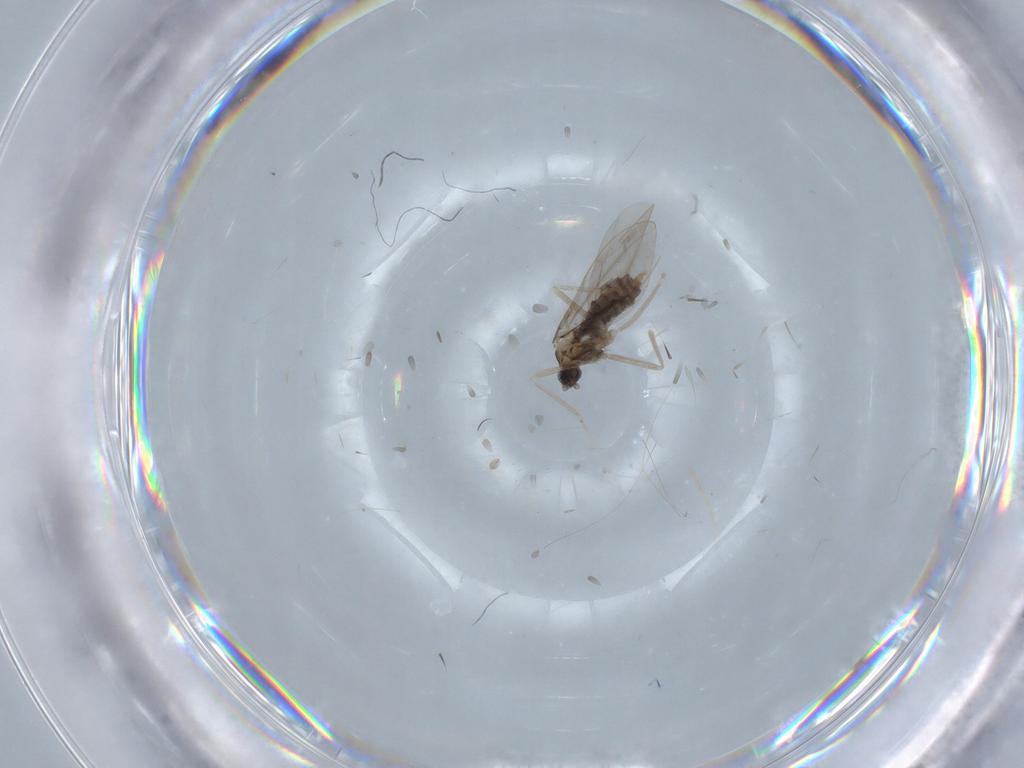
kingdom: Animalia
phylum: Arthropoda
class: Insecta
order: Diptera
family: Cecidomyiidae
